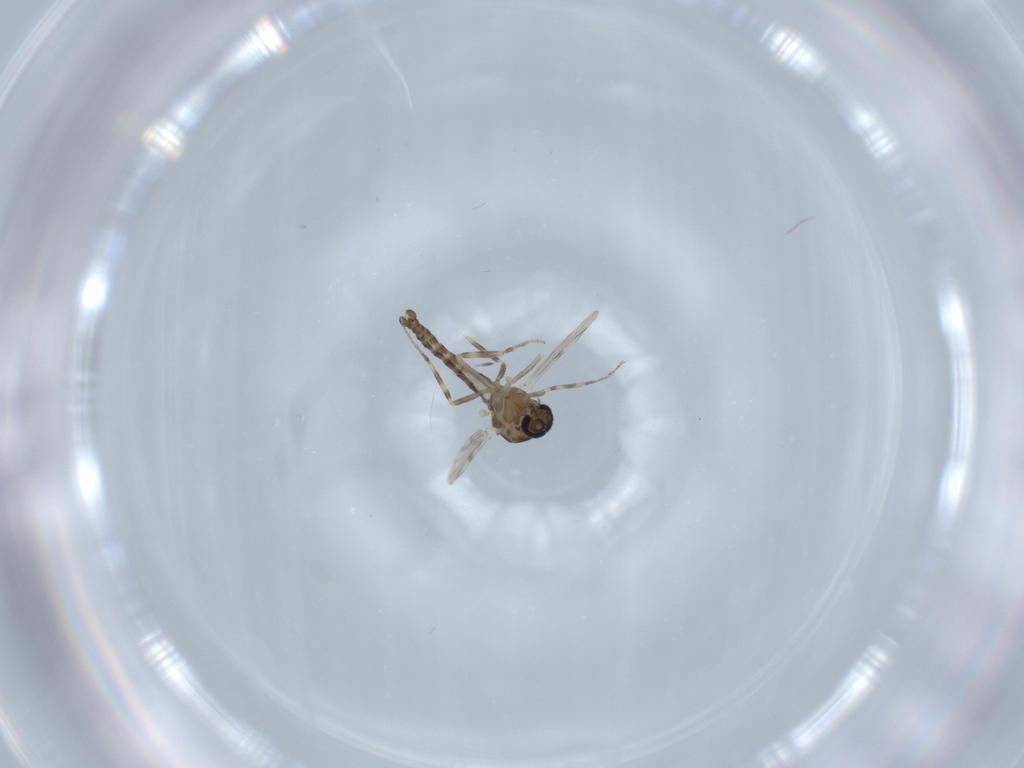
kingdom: Animalia
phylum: Arthropoda
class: Insecta
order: Diptera
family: Ceratopogonidae
